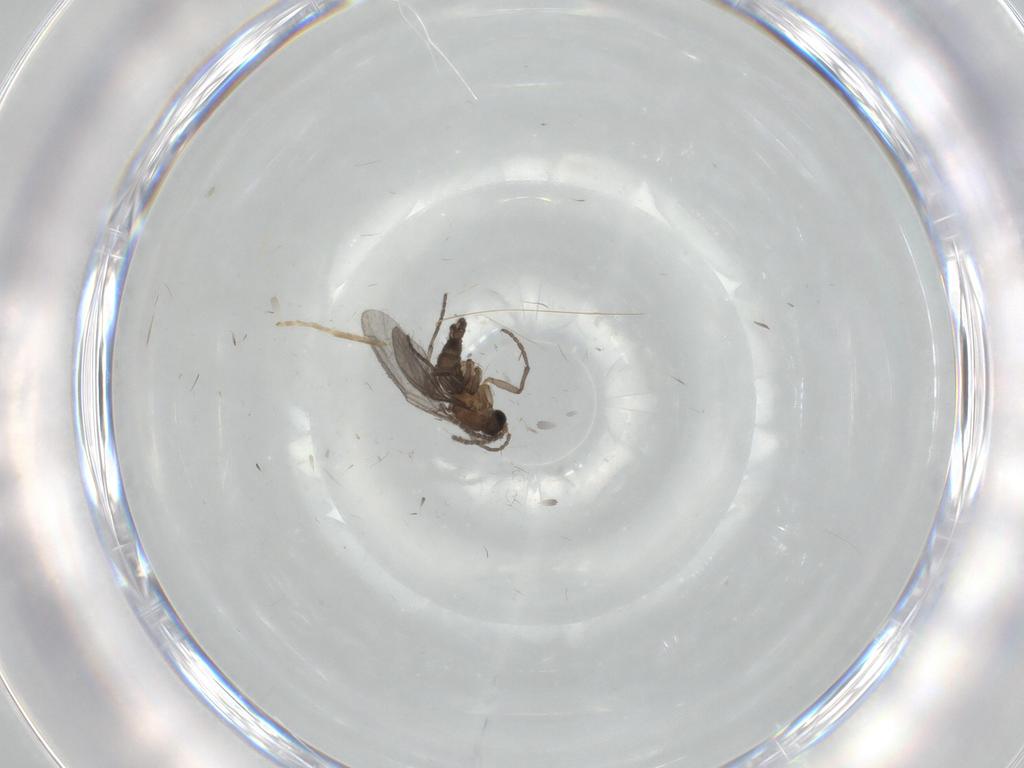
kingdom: Animalia
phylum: Arthropoda
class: Insecta
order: Diptera
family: Sciaridae
